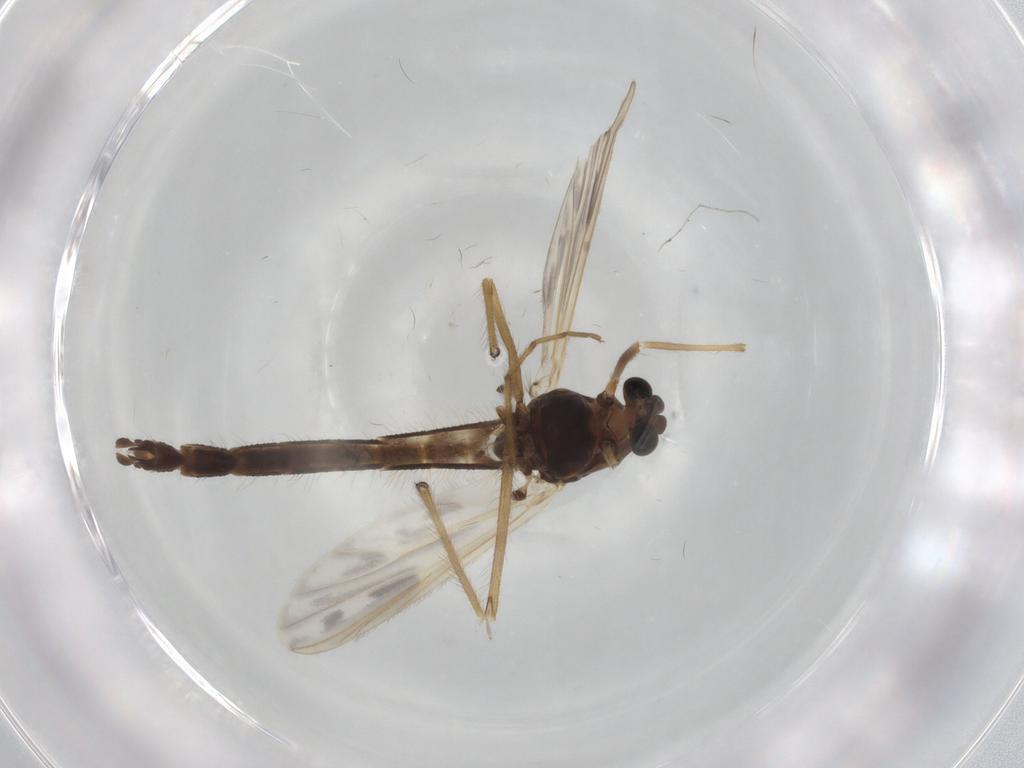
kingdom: Animalia
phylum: Arthropoda
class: Insecta
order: Diptera
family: Chironomidae
